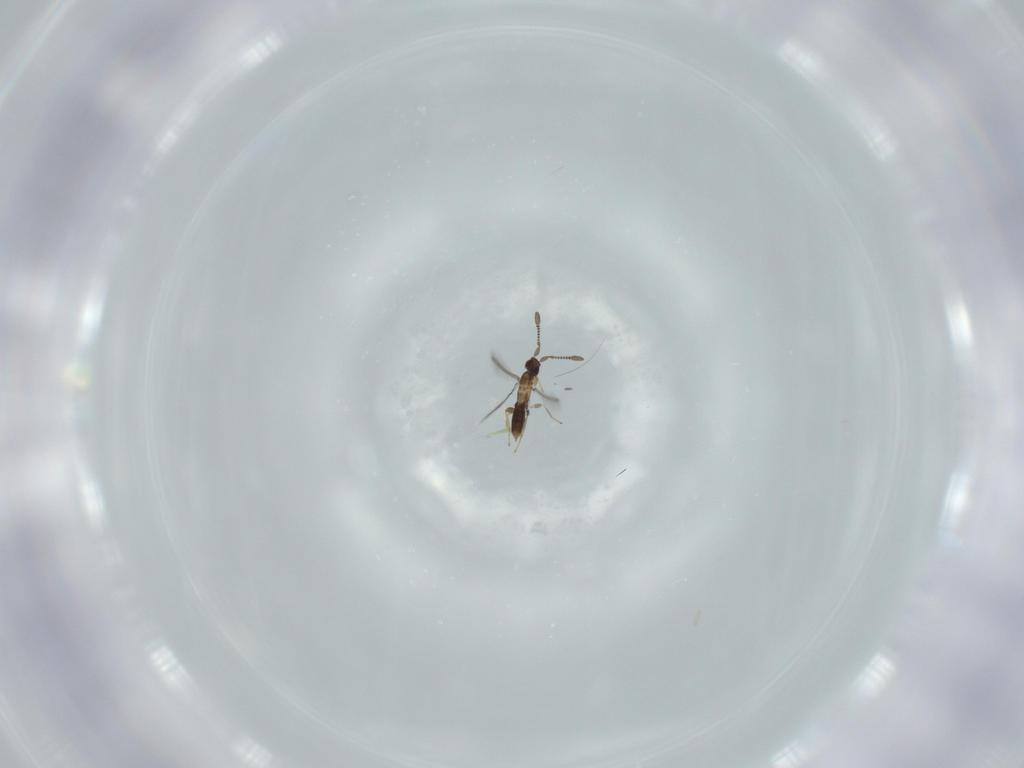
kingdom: Animalia
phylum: Arthropoda
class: Insecta
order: Hymenoptera
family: Mymaridae
